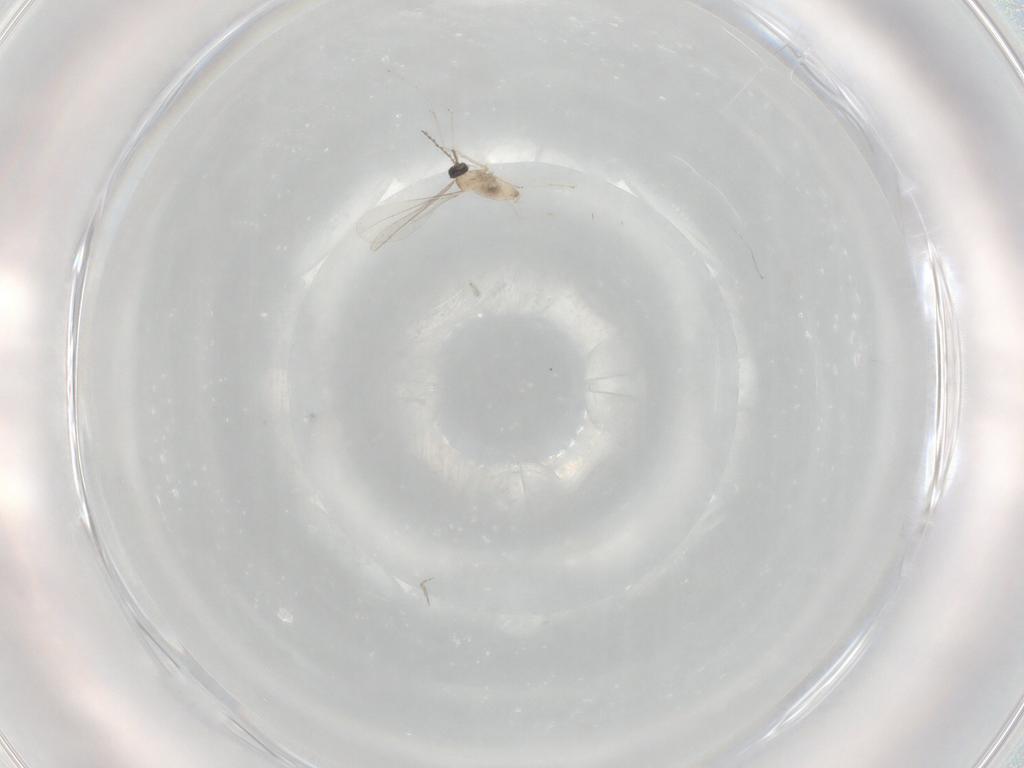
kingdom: Animalia
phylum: Arthropoda
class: Insecta
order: Diptera
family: Cecidomyiidae
